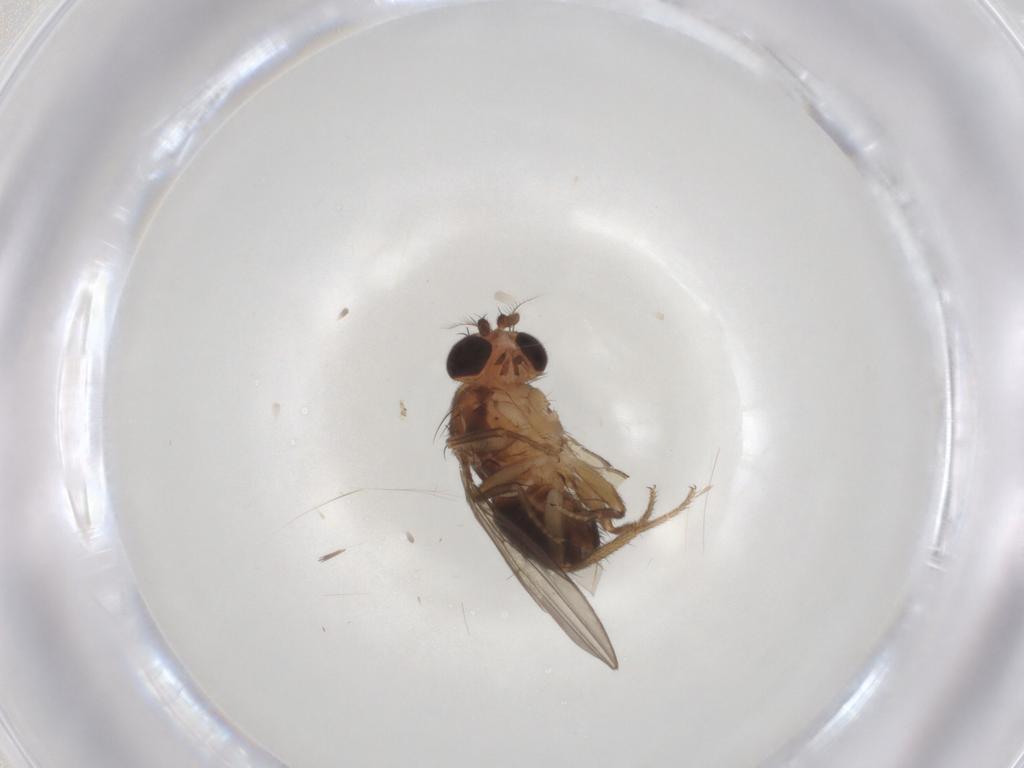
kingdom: Animalia
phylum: Arthropoda
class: Insecta
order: Diptera
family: Drosophilidae
